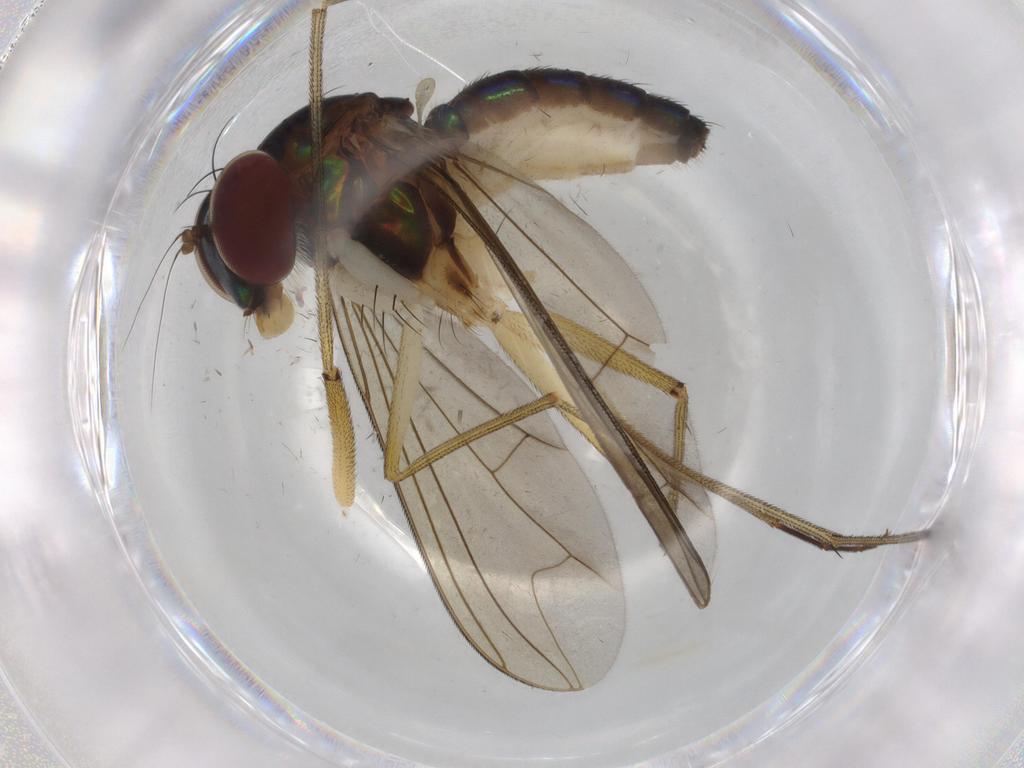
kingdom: Animalia
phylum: Arthropoda
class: Insecta
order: Diptera
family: Dolichopodidae
